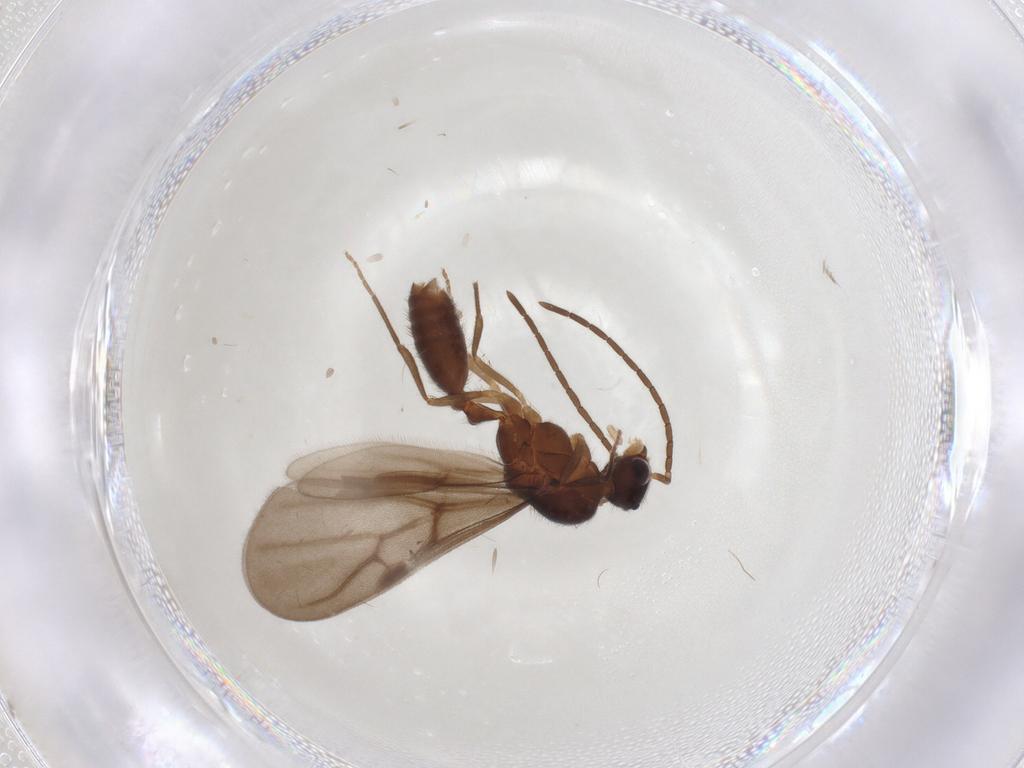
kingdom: Animalia
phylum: Arthropoda
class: Insecta
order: Hymenoptera
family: Formicidae
